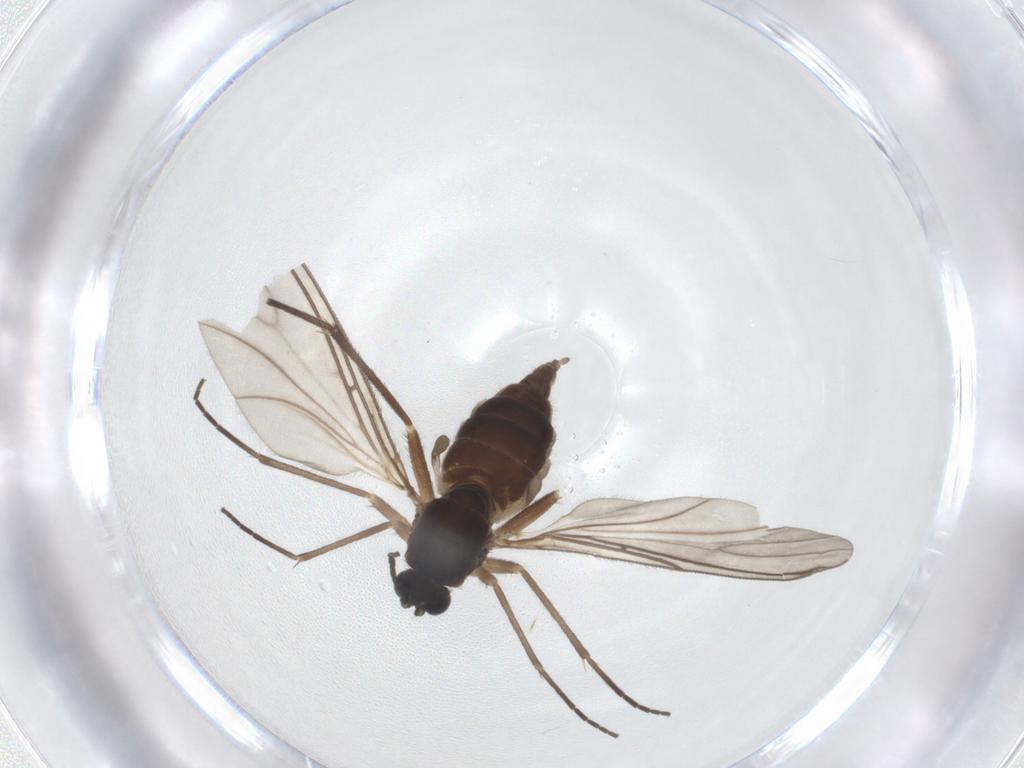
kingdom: Animalia
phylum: Arthropoda
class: Insecta
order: Diptera
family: Sciaridae
